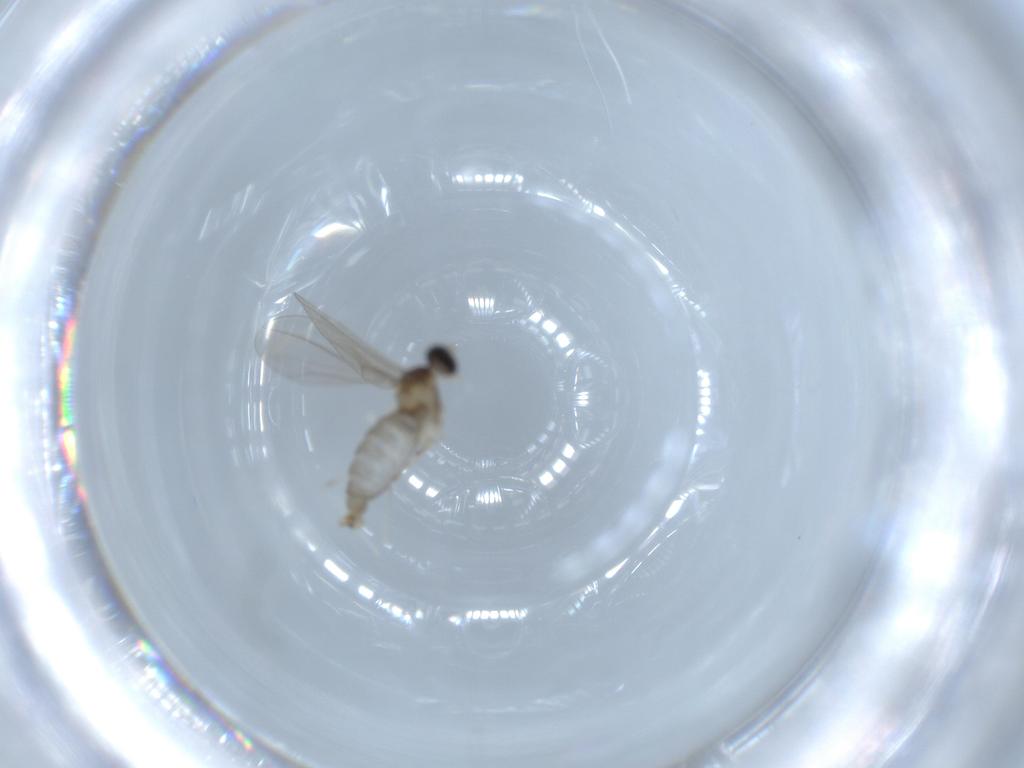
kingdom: Animalia
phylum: Arthropoda
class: Insecta
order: Diptera
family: Cecidomyiidae
